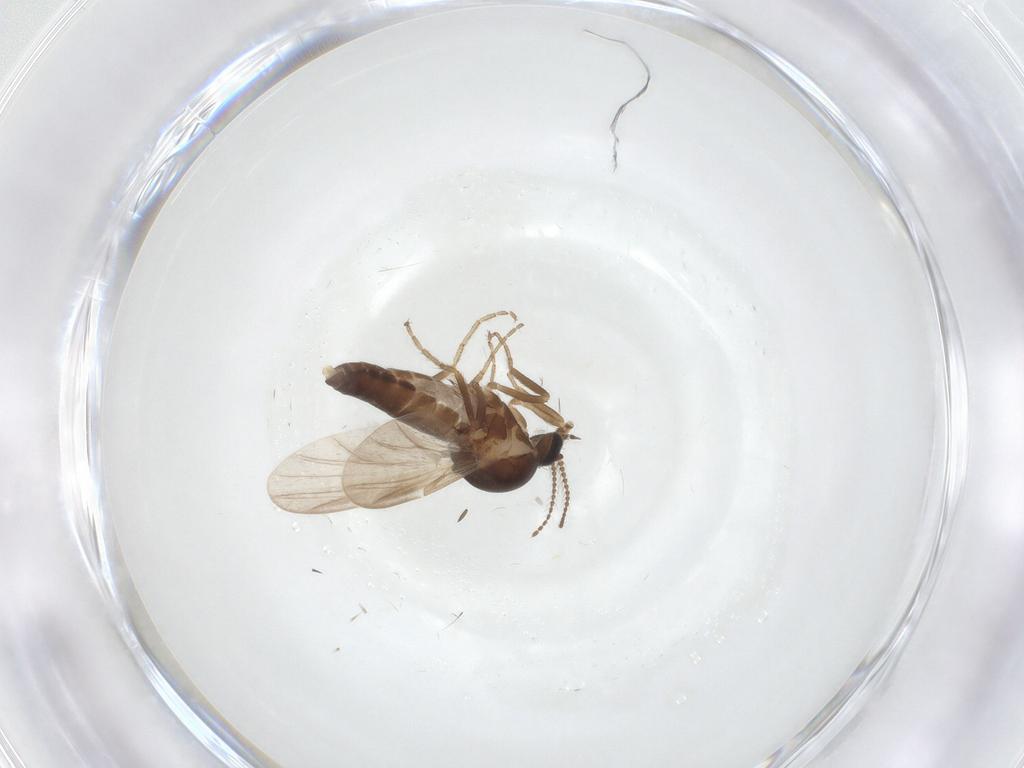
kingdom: Animalia
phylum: Arthropoda
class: Insecta
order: Diptera
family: Ceratopogonidae
